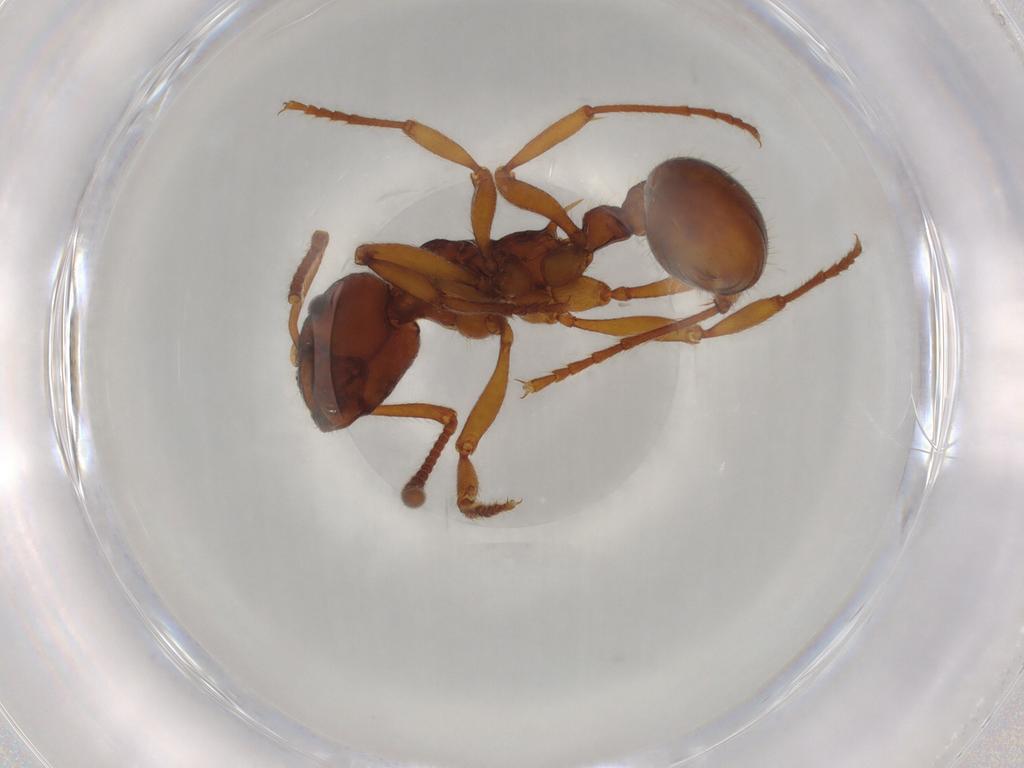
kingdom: Animalia
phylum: Arthropoda
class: Insecta
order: Hymenoptera
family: Formicidae
